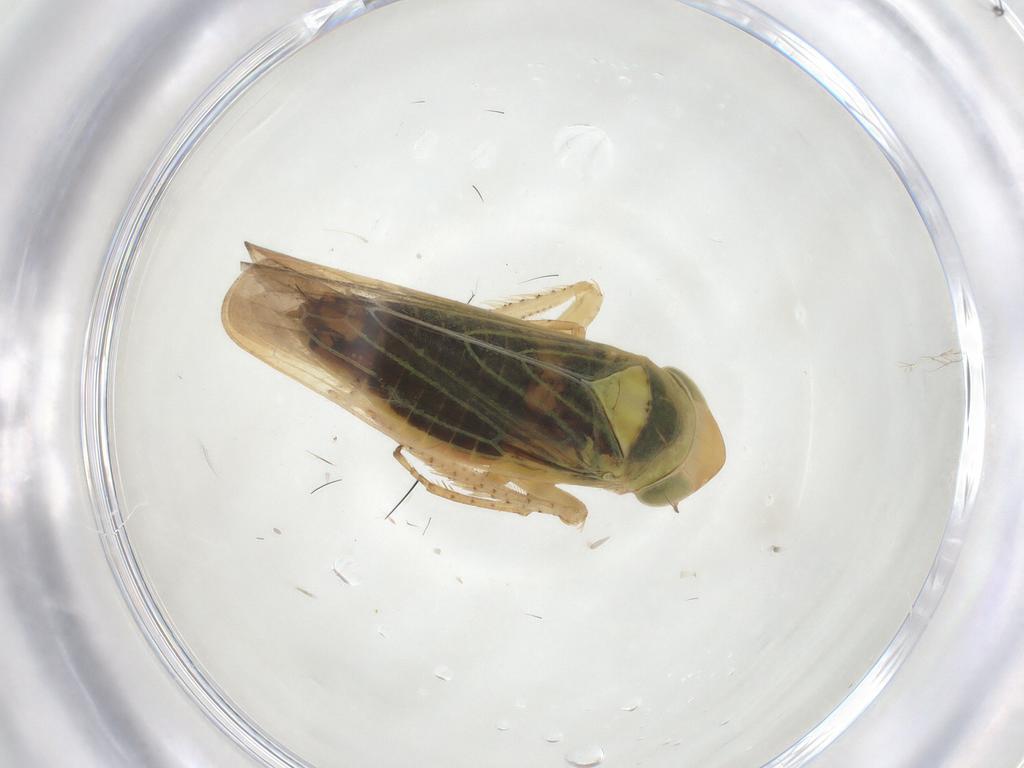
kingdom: Animalia
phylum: Arthropoda
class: Insecta
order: Hemiptera
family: Cicadellidae
